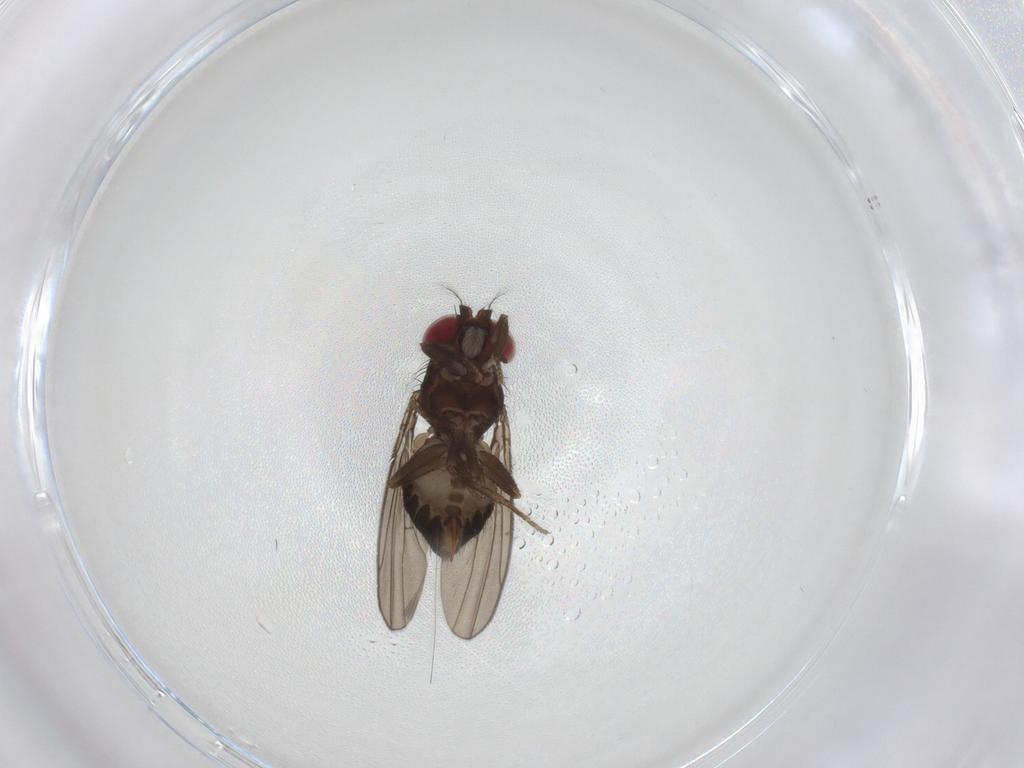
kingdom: Animalia
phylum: Arthropoda
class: Insecta
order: Diptera
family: Drosophilidae
